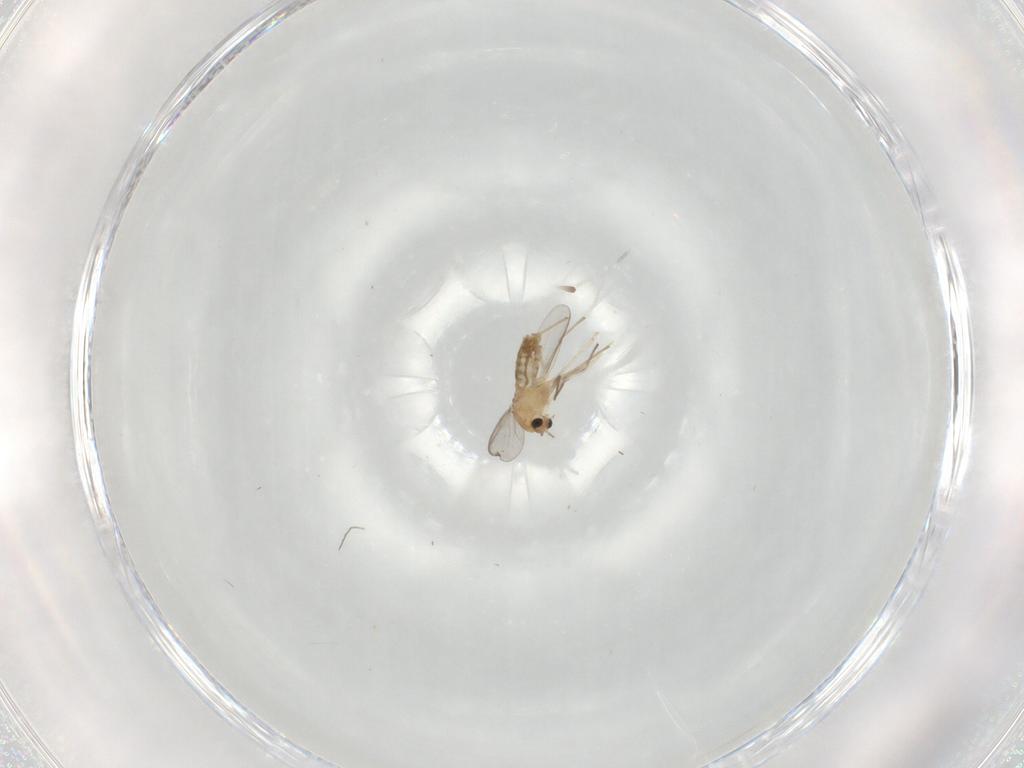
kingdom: Animalia
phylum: Arthropoda
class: Insecta
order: Diptera
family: Chironomidae
